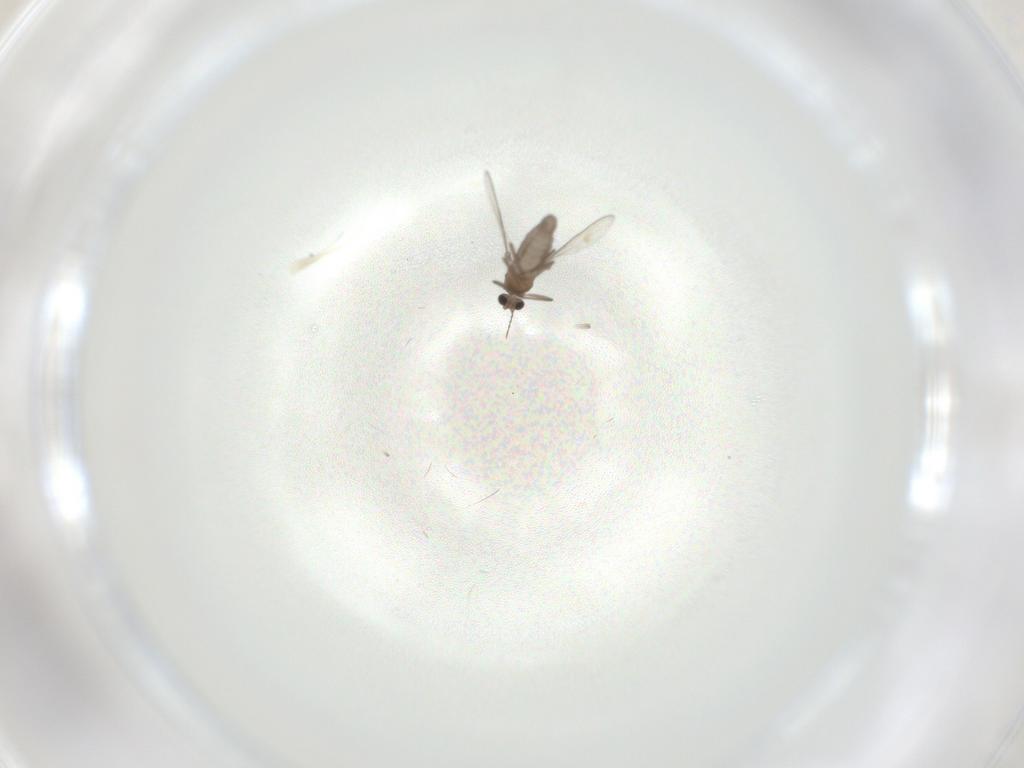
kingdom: Animalia
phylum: Arthropoda
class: Insecta
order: Diptera
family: Chironomidae
